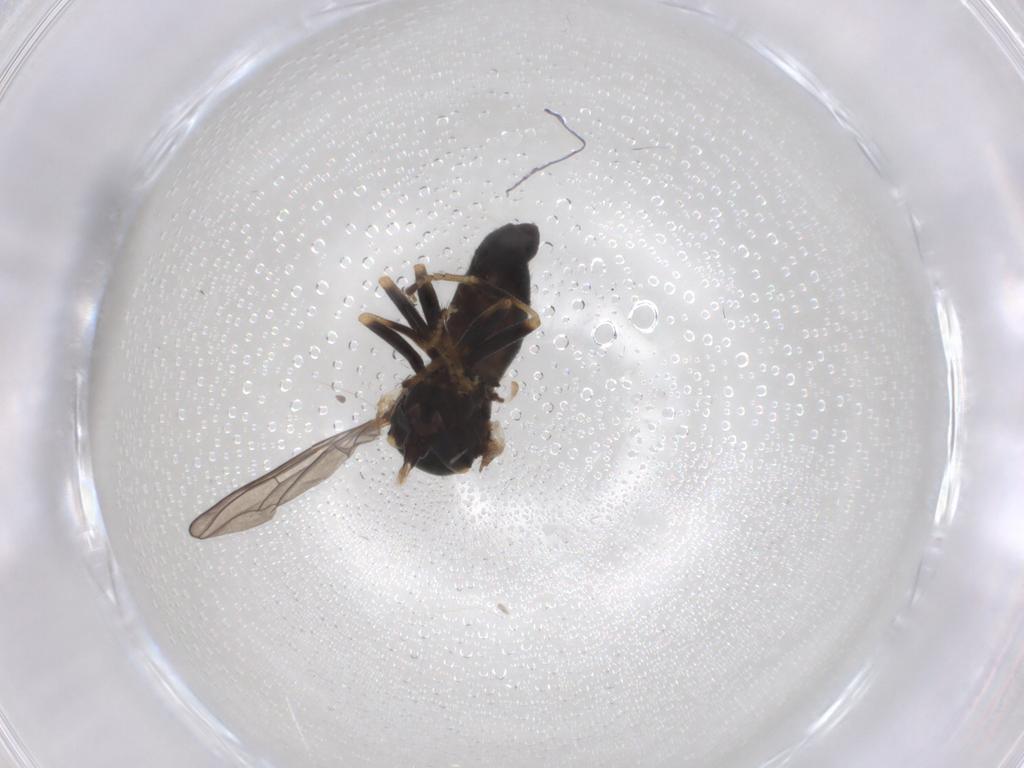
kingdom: Animalia
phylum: Arthropoda
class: Insecta
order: Diptera
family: Pipunculidae
